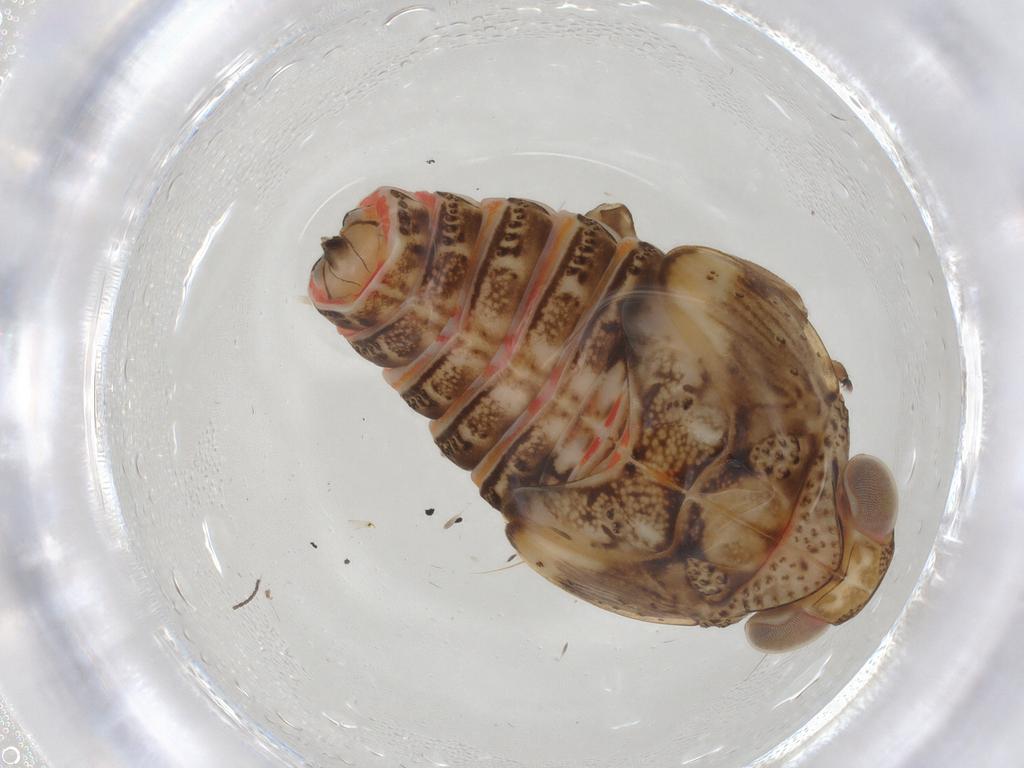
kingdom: Animalia
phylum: Arthropoda
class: Insecta
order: Hemiptera
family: Issidae
